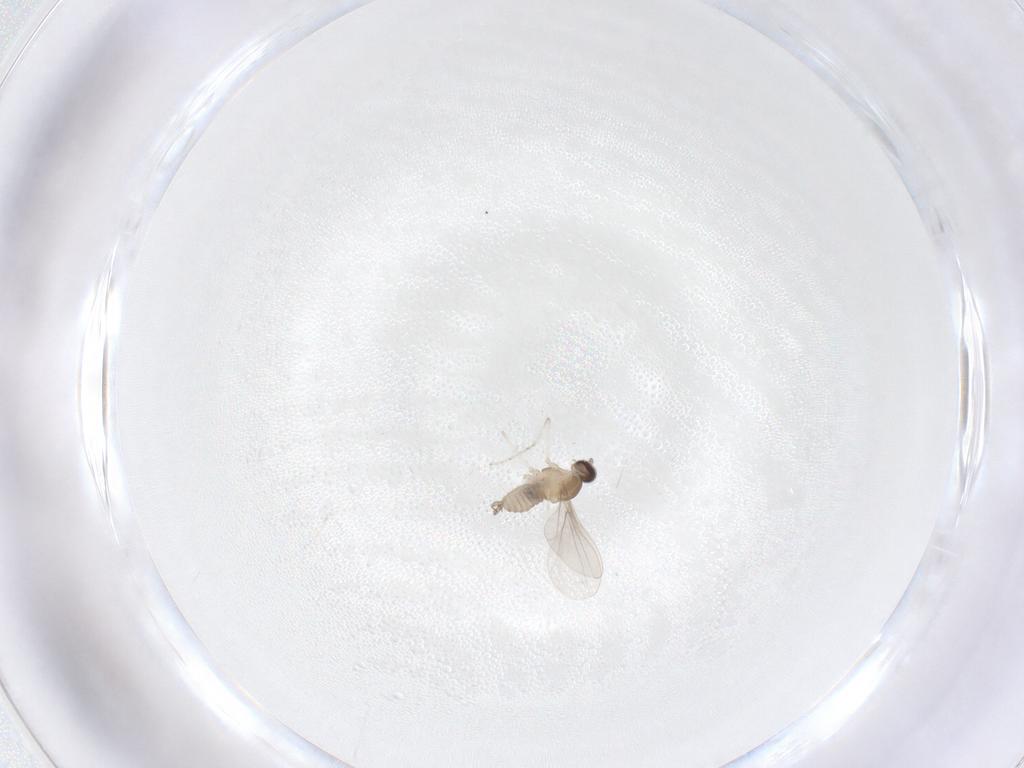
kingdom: Animalia
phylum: Arthropoda
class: Insecta
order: Diptera
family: Cecidomyiidae
